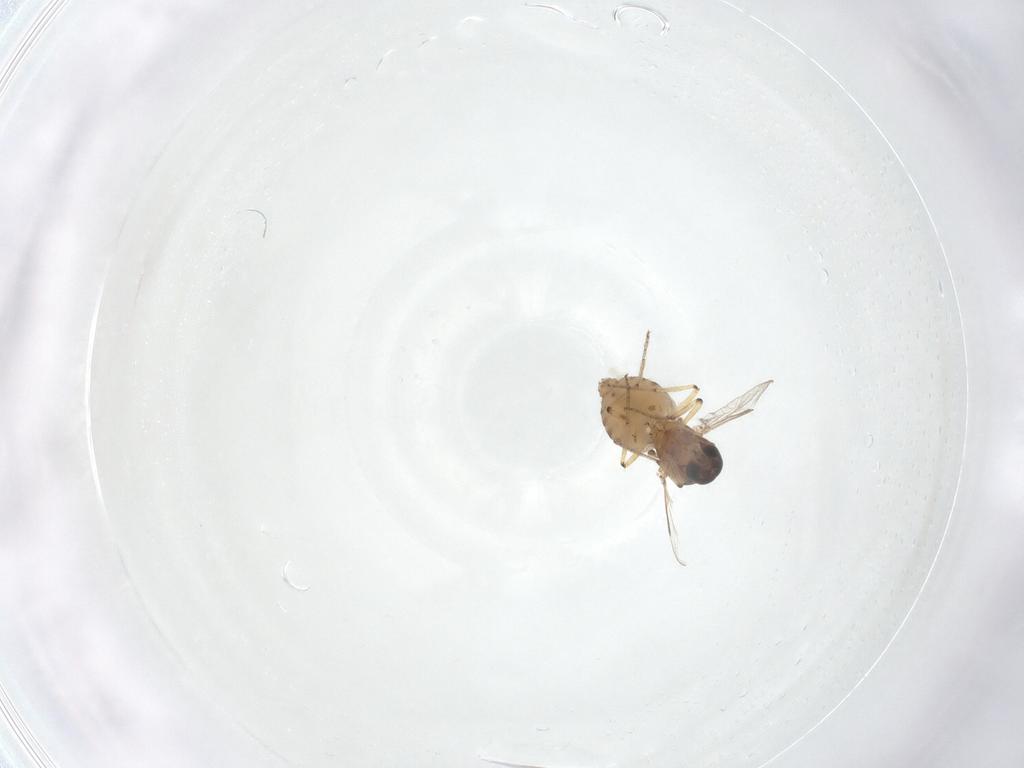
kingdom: Animalia
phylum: Arthropoda
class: Insecta
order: Diptera
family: Ceratopogonidae
